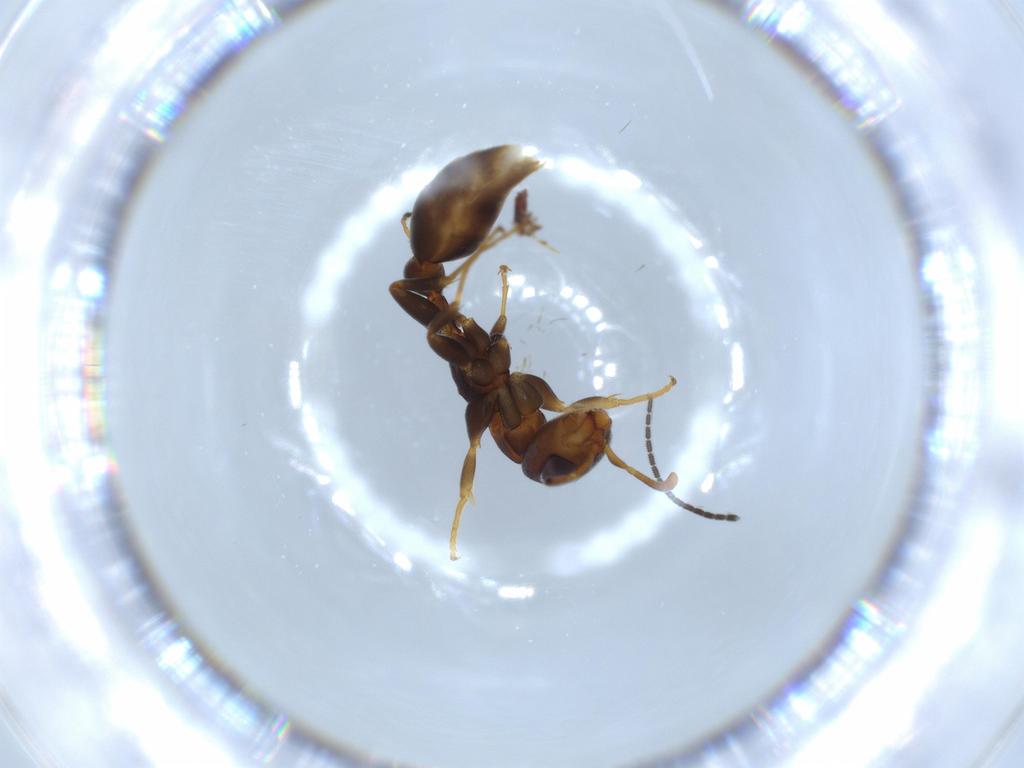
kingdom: Animalia
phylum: Arthropoda
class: Insecta
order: Hymenoptera
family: Formicidae
